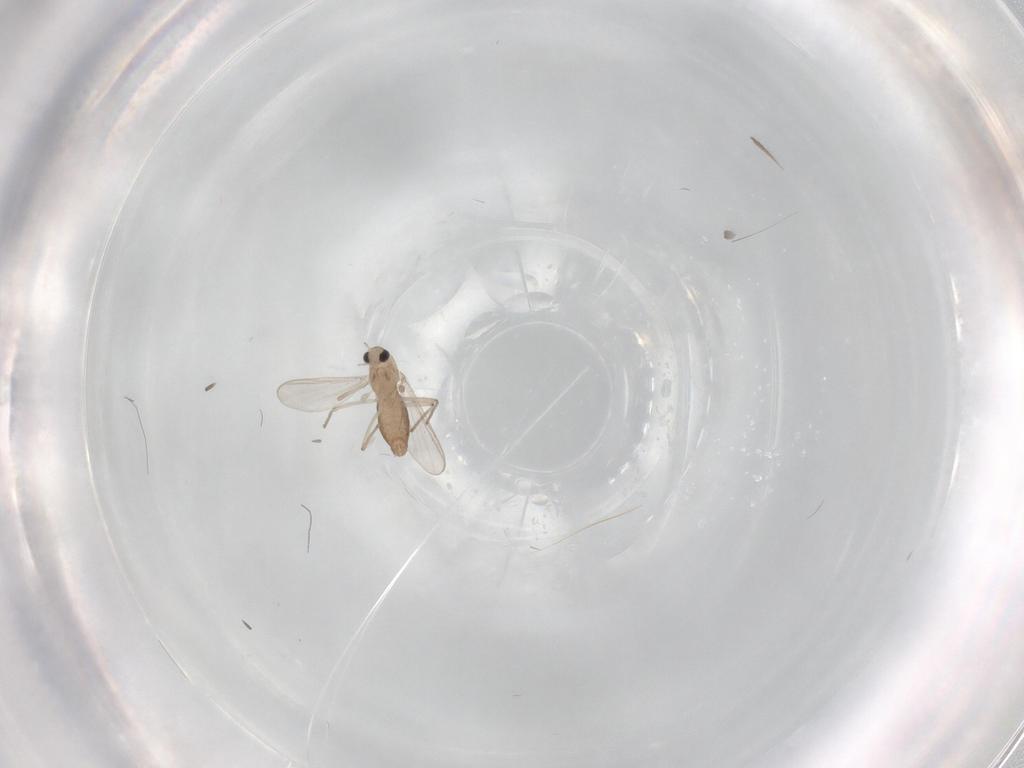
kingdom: Animalia
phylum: Arthropoda
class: Insecta
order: Diptera
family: Chironomidae
